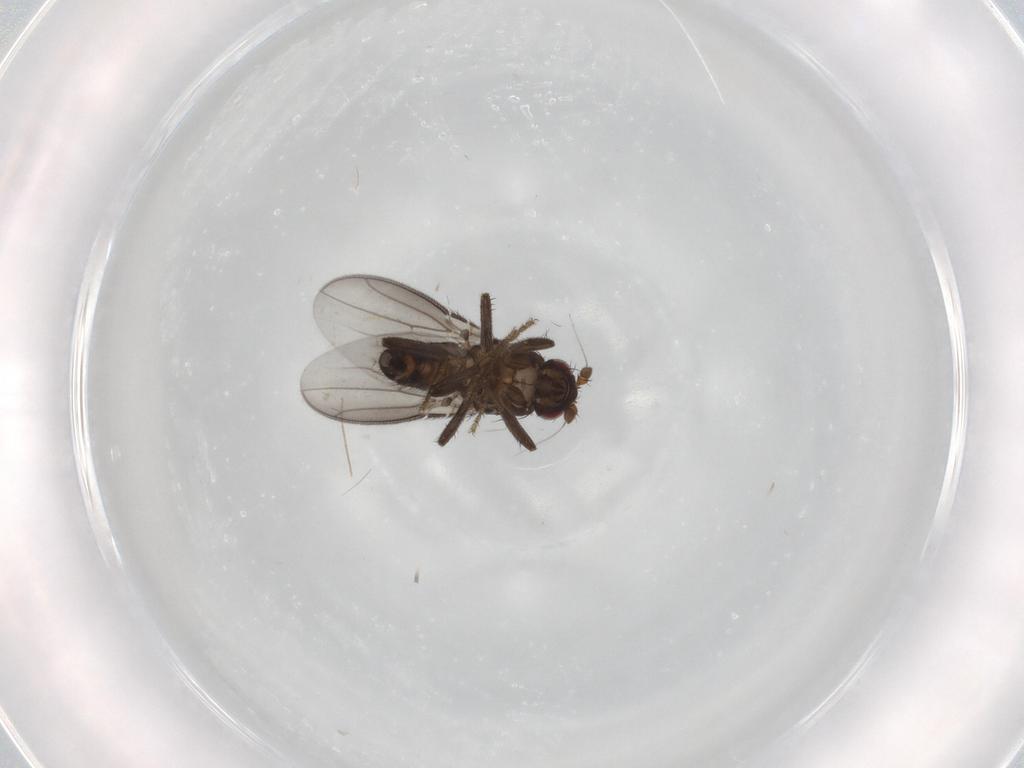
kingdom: Animalia
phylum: Arthropoda
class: Insecta
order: Diptera
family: Sphaeroceridae
